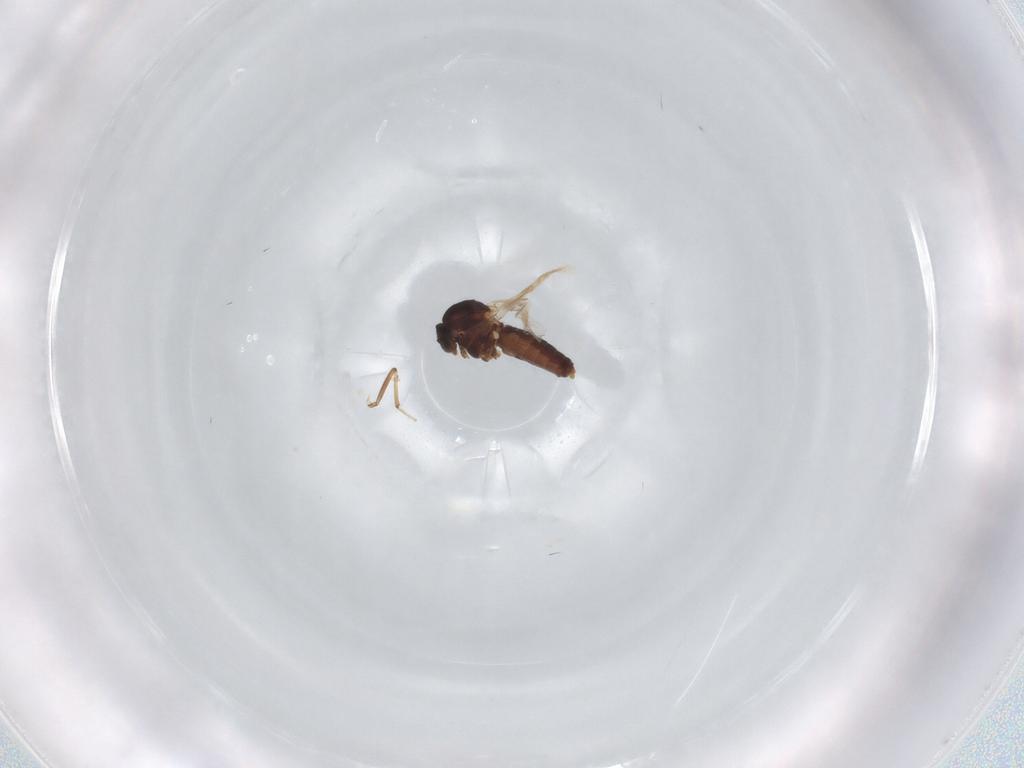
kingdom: Animalia
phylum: Arthropoda
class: Insecta
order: Diptera
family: Ceratopogonidae
